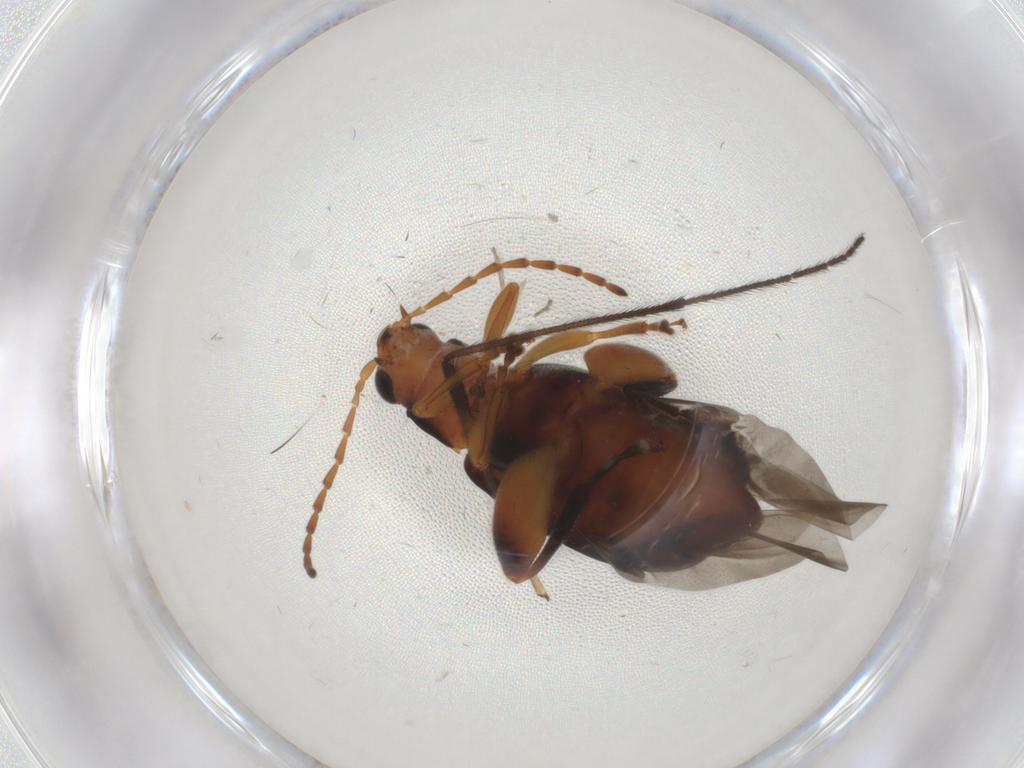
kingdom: Animalia
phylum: Arthropoda
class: Insecta
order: Coleoptera
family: Chrysomelidae
